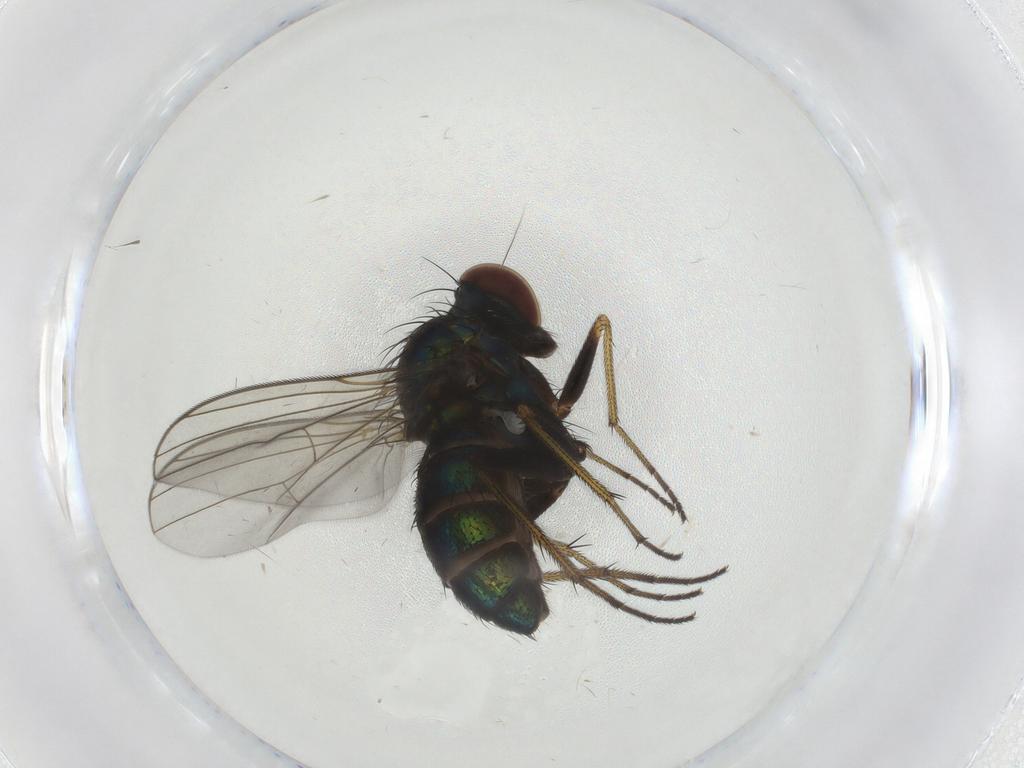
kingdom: Animalia
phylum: Arthropoda
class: Insecta
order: Diptera
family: Dolichopodidae
